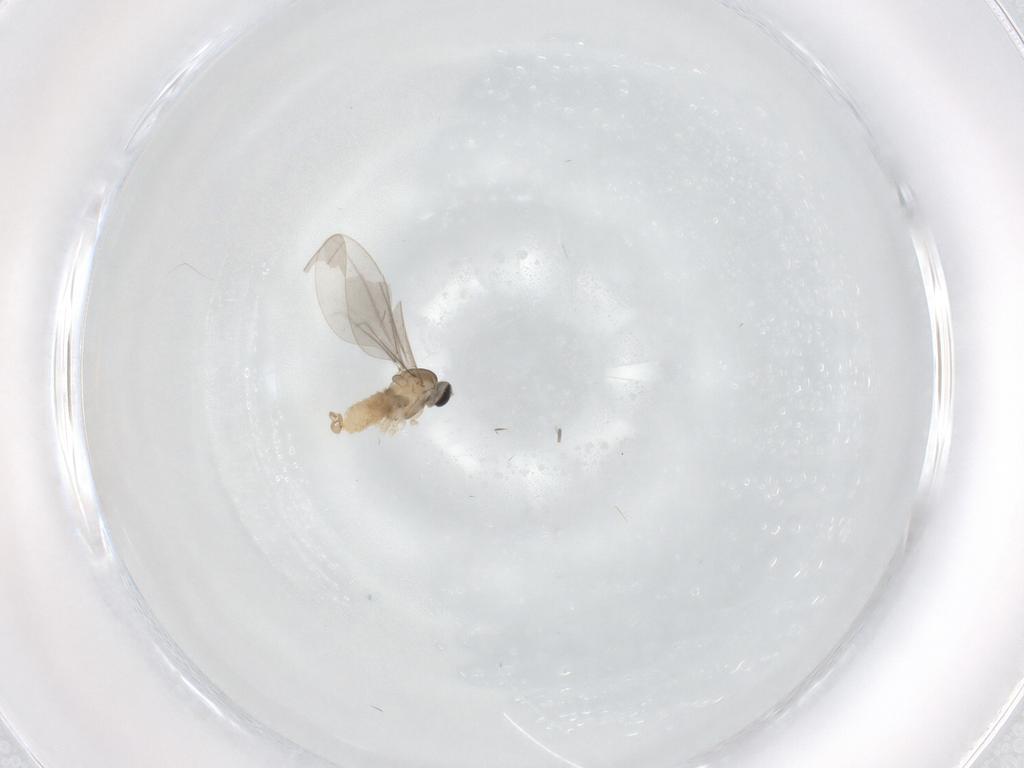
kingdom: Animalia
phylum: Arthropoda
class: Insecta
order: Diptera
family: Cecidomyiidae
